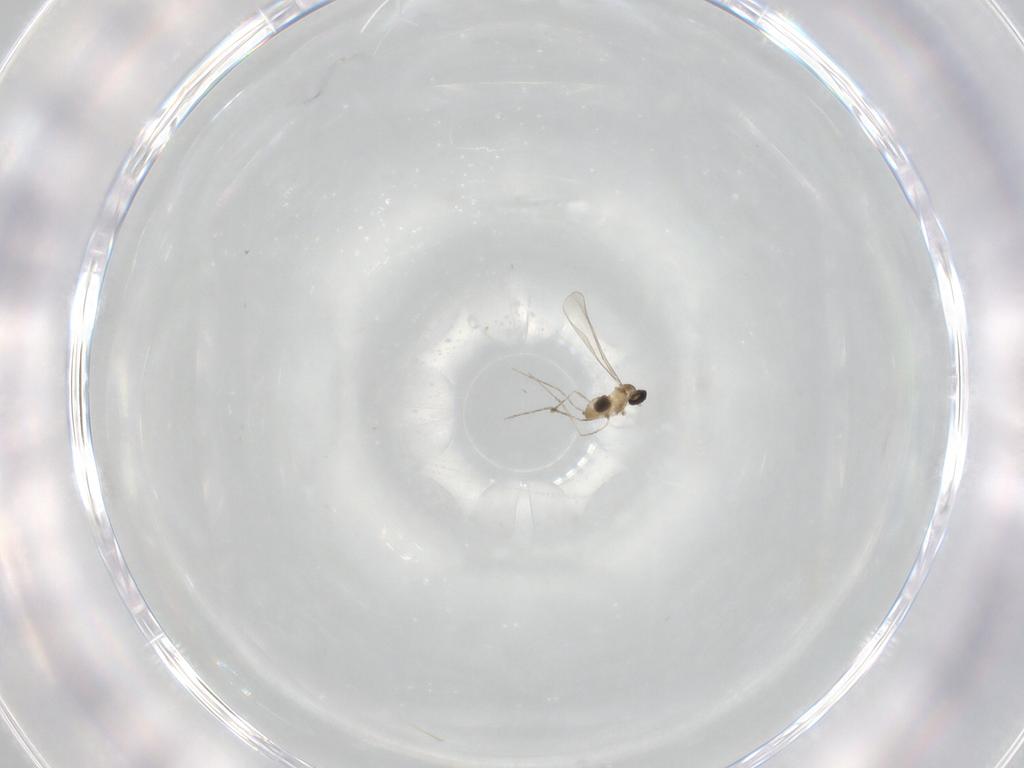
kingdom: Animalia
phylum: Arthropoda
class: Insecta
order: Diptera
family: Cecidomyiidae
